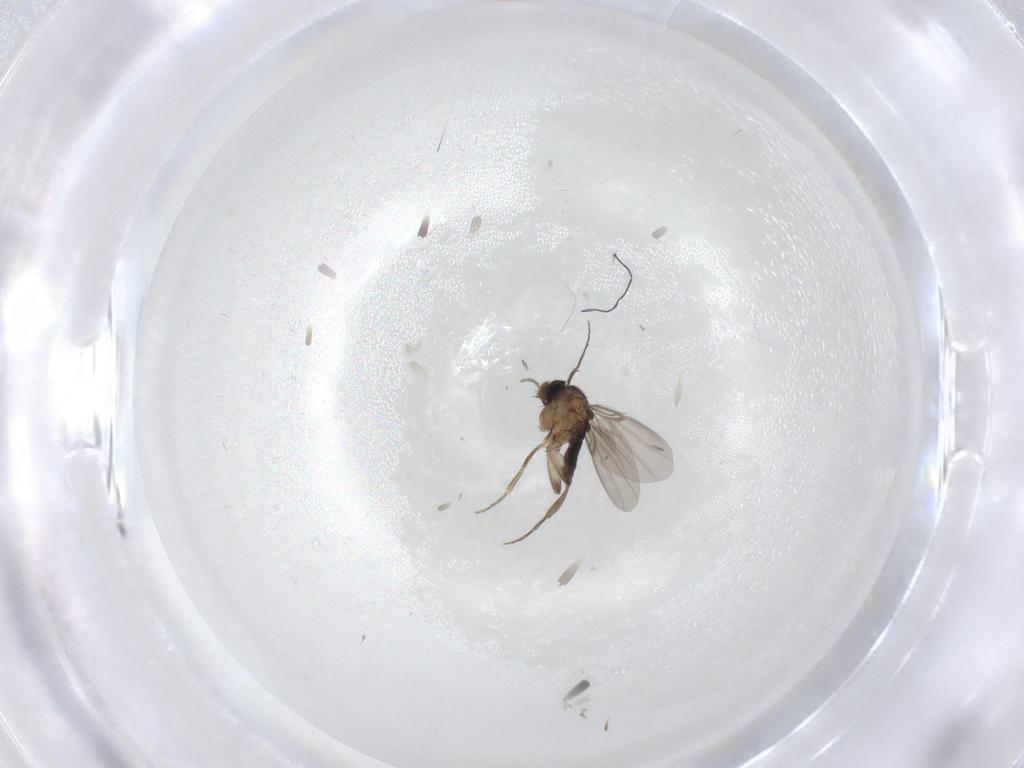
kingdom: Animalia
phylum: Arthropoda
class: Insecta
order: Diptera
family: Phoridae
